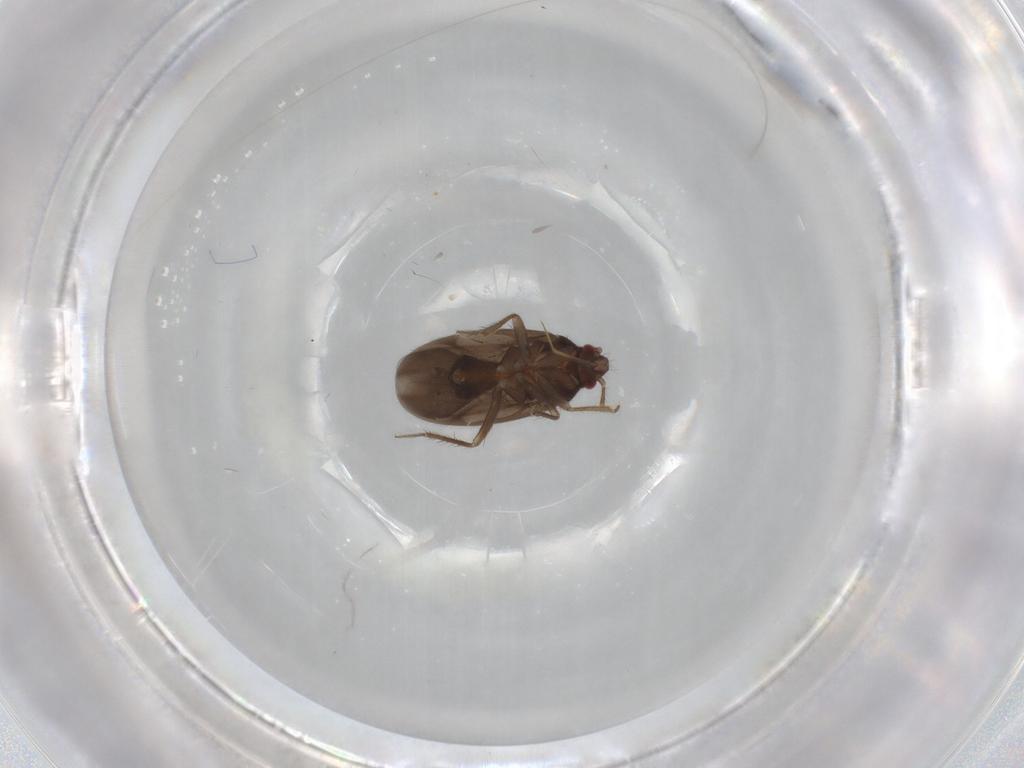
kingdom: Animalia
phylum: Arthropoda
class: Insecta
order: Hemiptera
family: Ceratocombidae
